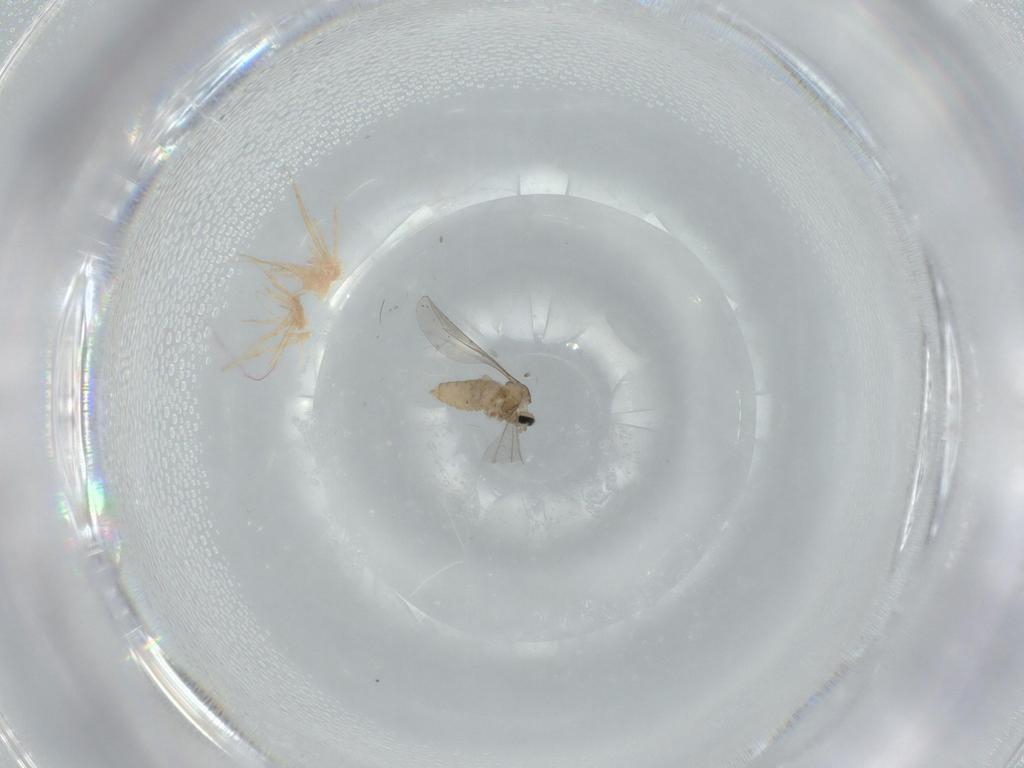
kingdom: Animalia
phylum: Arthropoda
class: Insecta
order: Diptera
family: Cecidomyiidae
